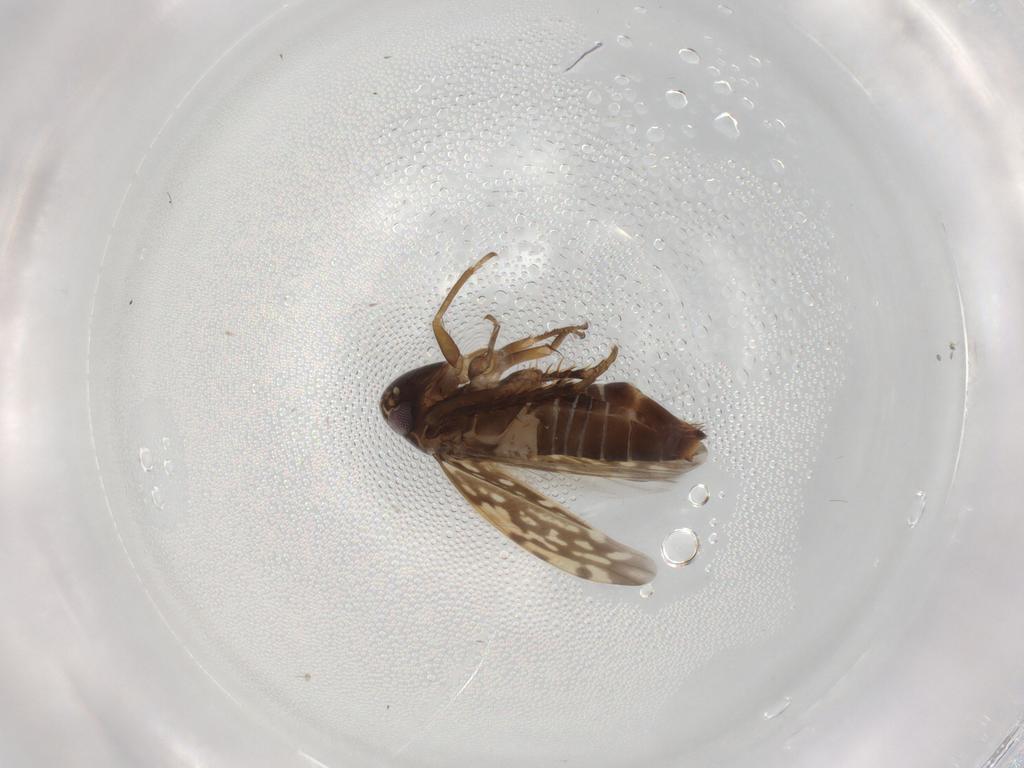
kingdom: Animalia
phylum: Arthropoda
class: Insecta
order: Hemiptera
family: Cicadellidae
